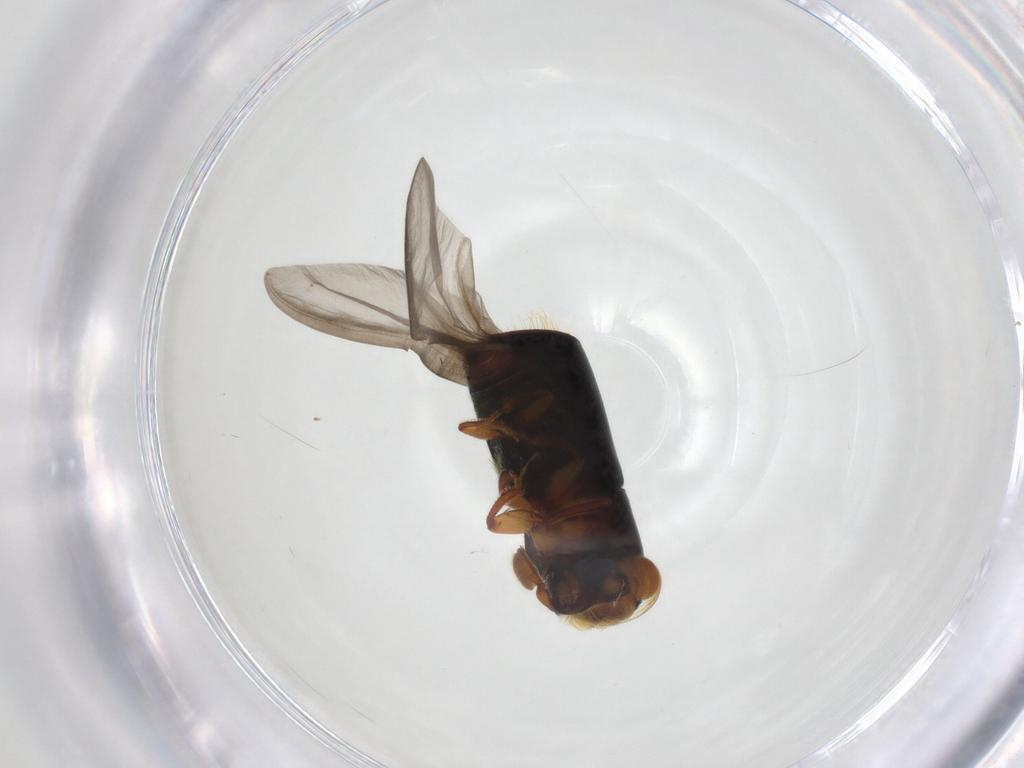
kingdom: Animalia
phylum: Arthropoda
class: Insecta
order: Coleoptera
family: Curculionidae
